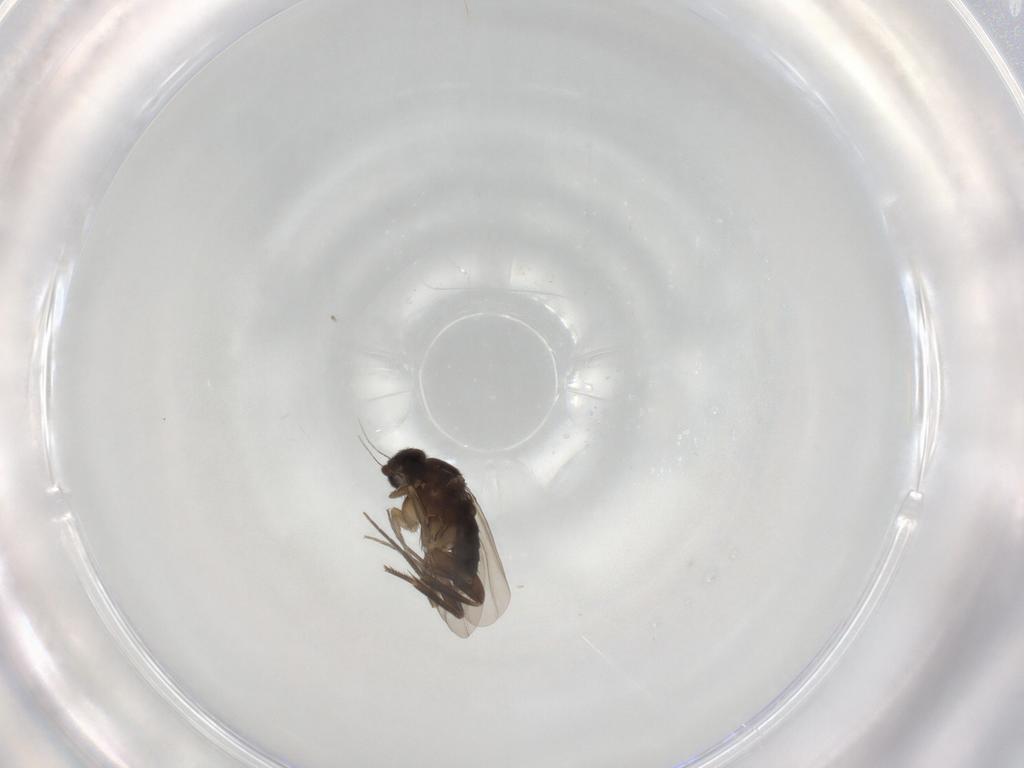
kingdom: Animalia
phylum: Arthropoda
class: Insecta
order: Diptera
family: Phoridae
